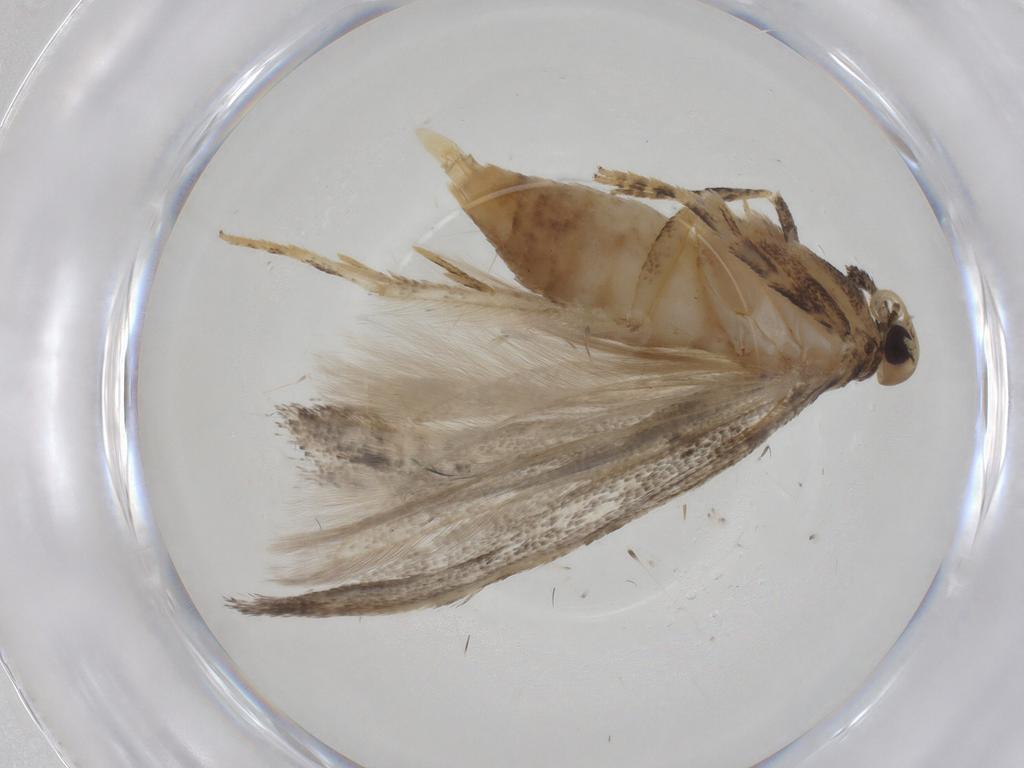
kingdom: Animalia
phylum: Arthropoda
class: Insecta
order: Lepidoptera
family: Gelechiidae
